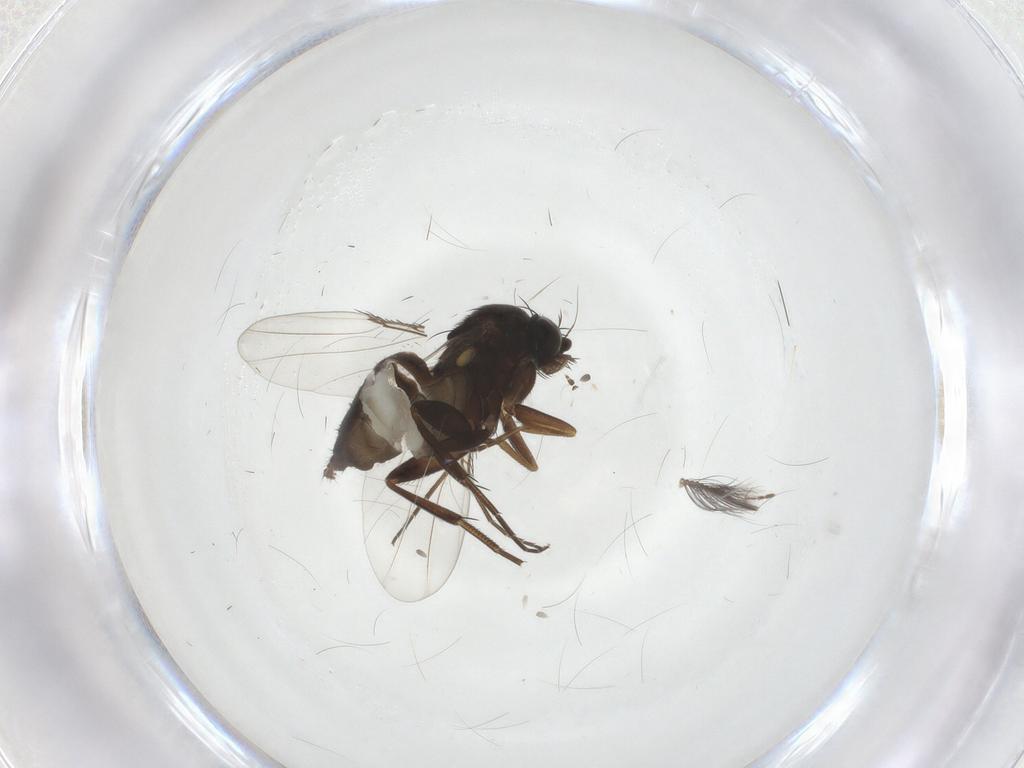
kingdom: Animalia
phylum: Arthropoda
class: Insecta
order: Diptera
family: Phoridae
